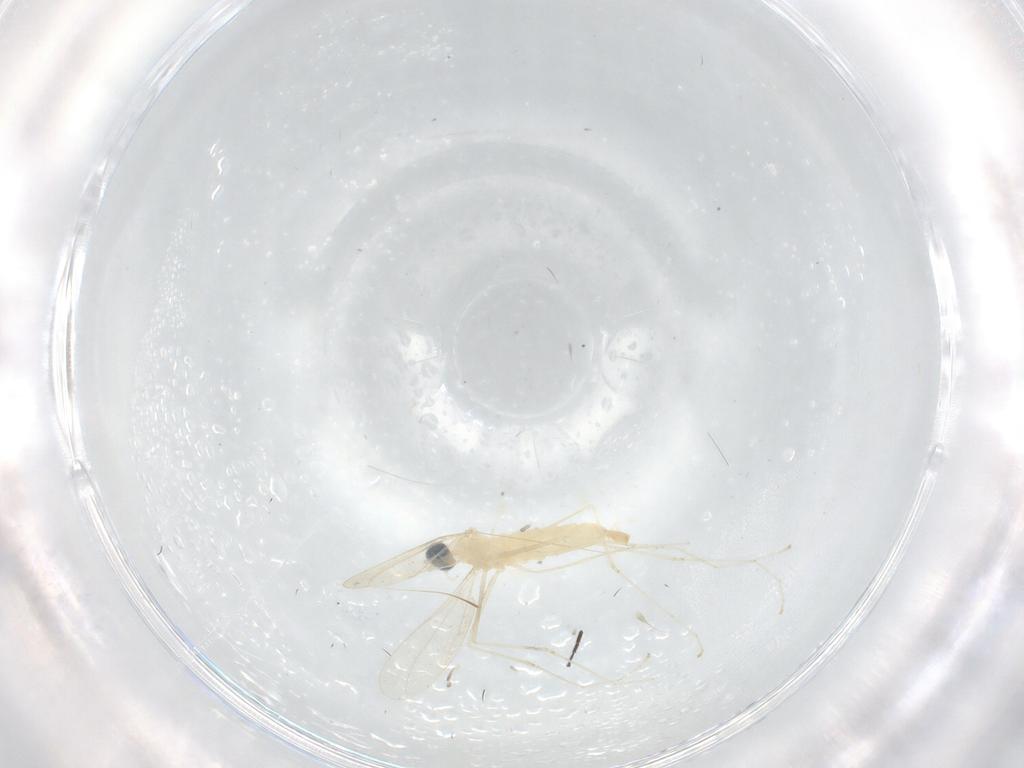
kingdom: Animalia
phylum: Arthropoda
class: Insecta
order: Diptera
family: Sciaridae
